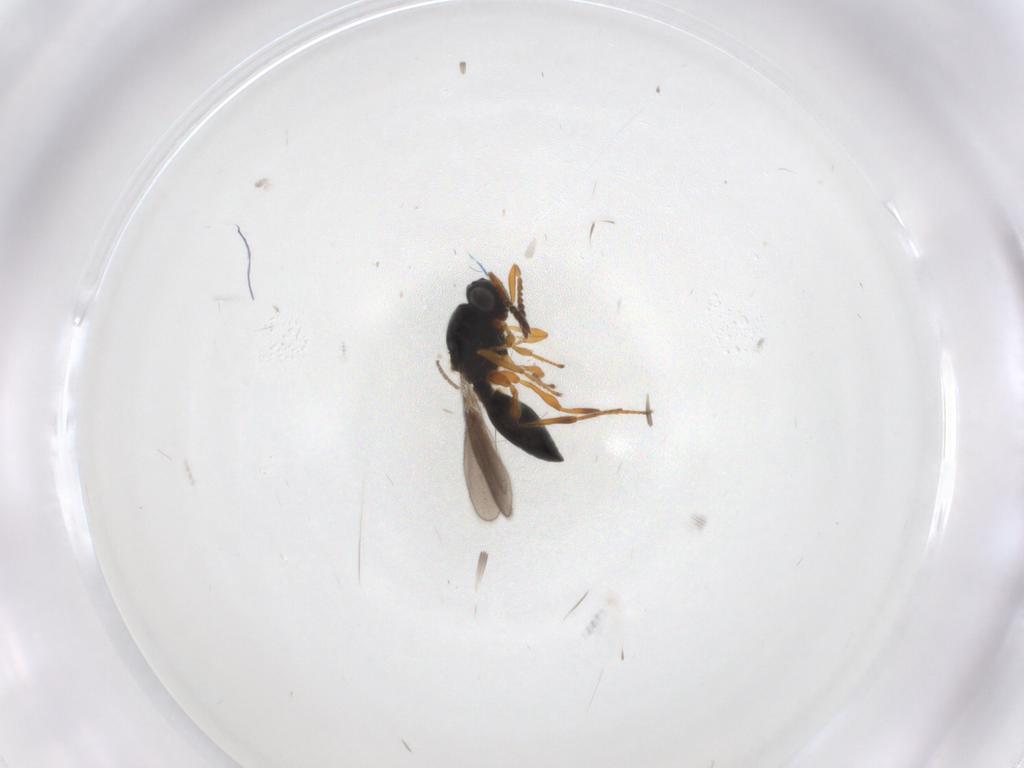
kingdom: Animalia
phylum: Arthropoda
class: Insecta
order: Hymenoptera
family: Platygastridae
